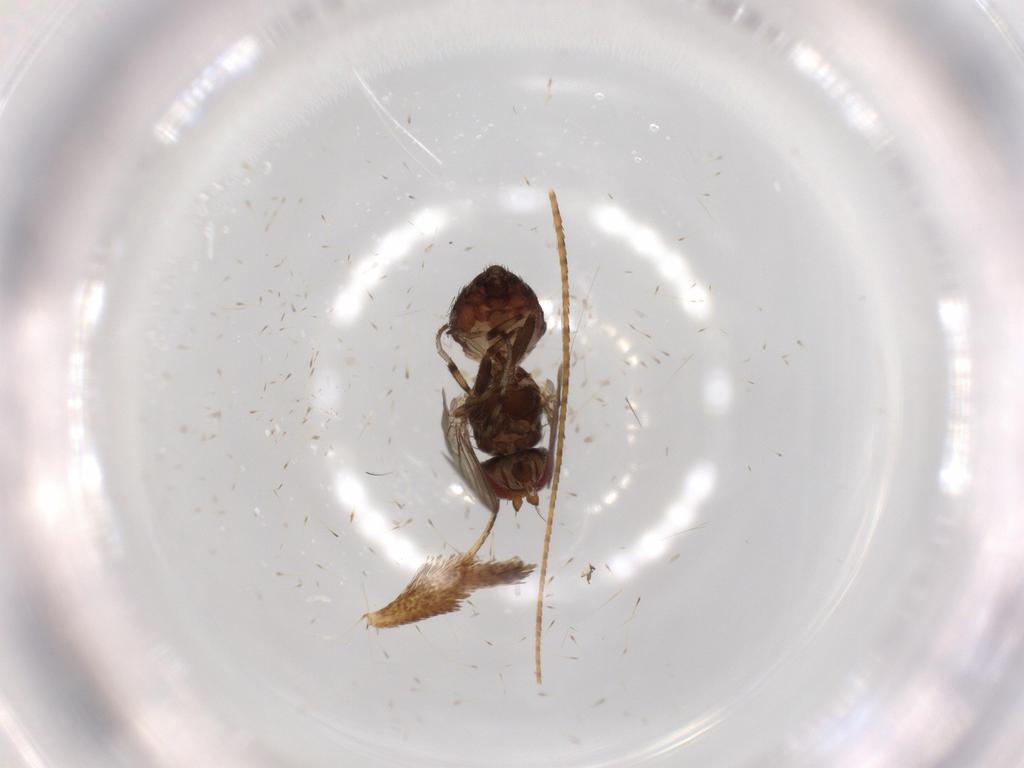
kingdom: Animalia
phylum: Arthropoda
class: Insecta
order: Diptera
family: Heleomyzidae
